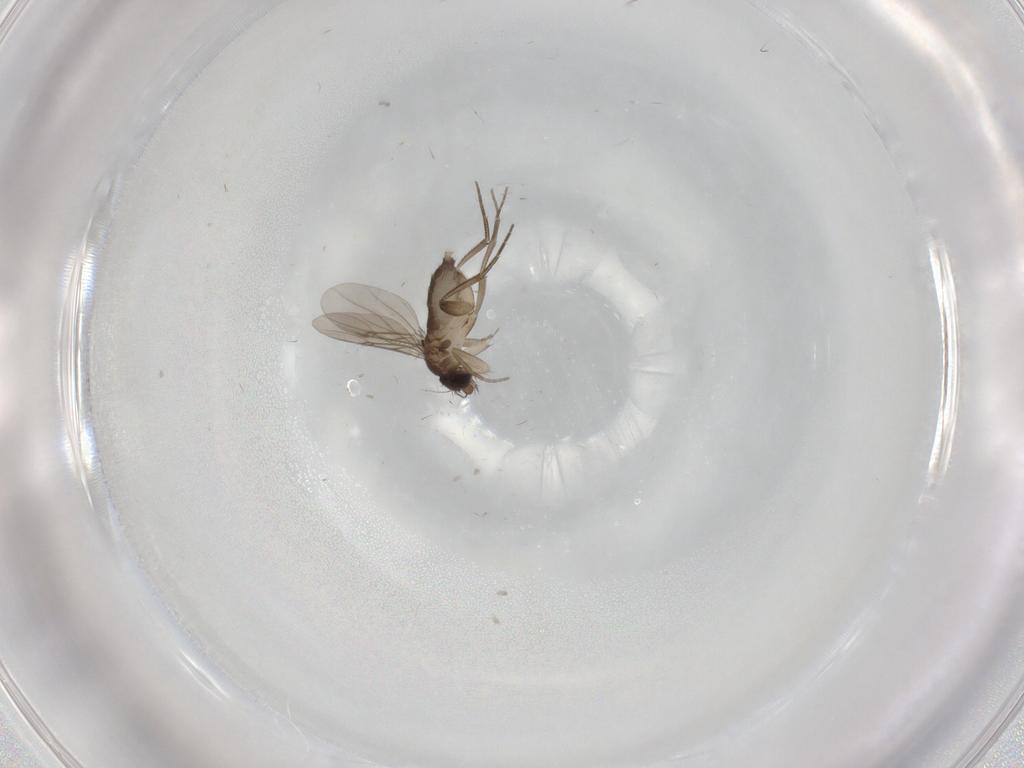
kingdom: Animalia
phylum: Arthropoda
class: Insecta
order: Diptera
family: Phoridae
